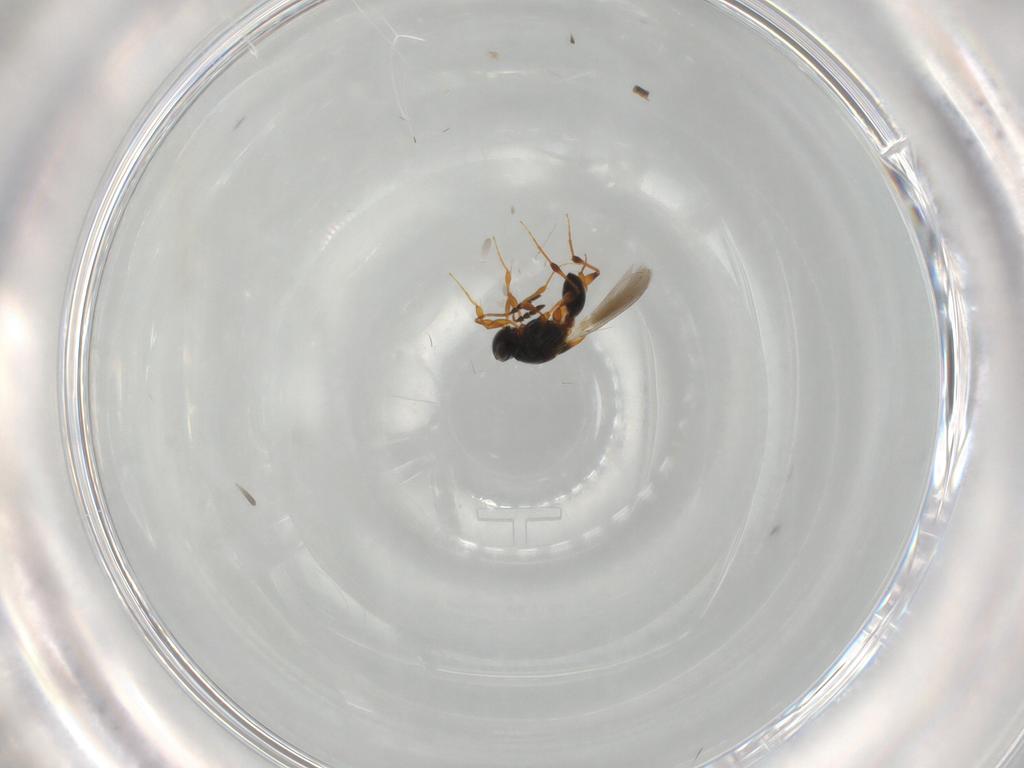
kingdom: Animalia
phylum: Arthropoda
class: Insecta
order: Hymenoptera
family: Platygastridae
